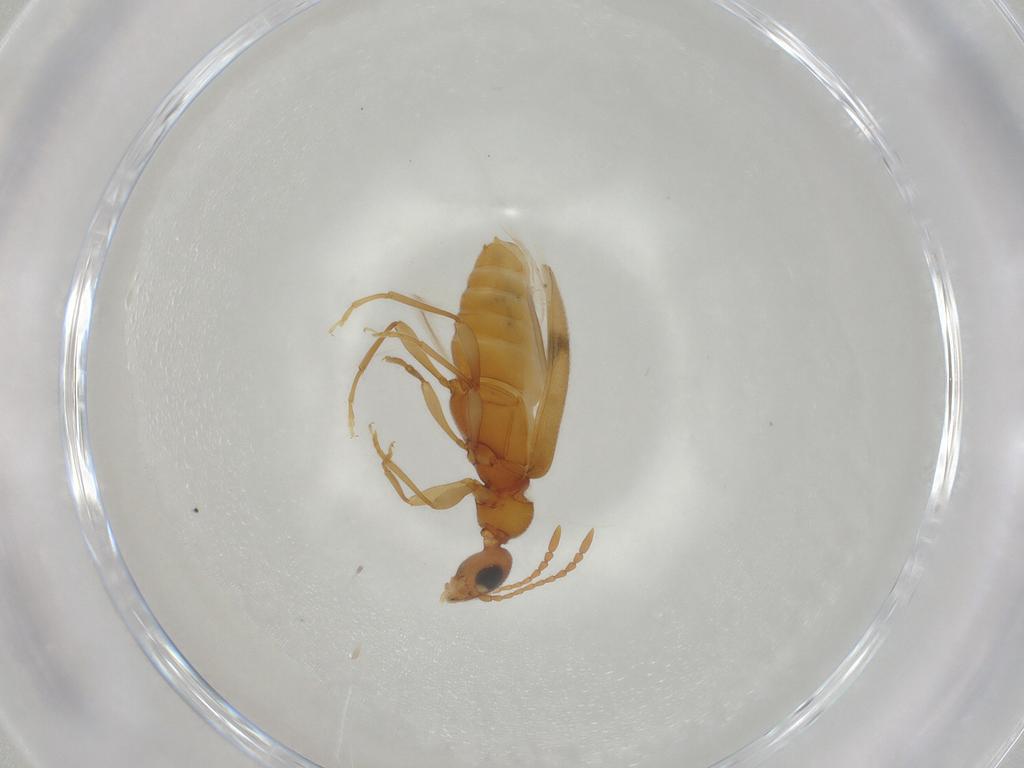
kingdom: Animalia
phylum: Arthropoda
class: Insecta
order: Coleoptera
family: Anthicidae
